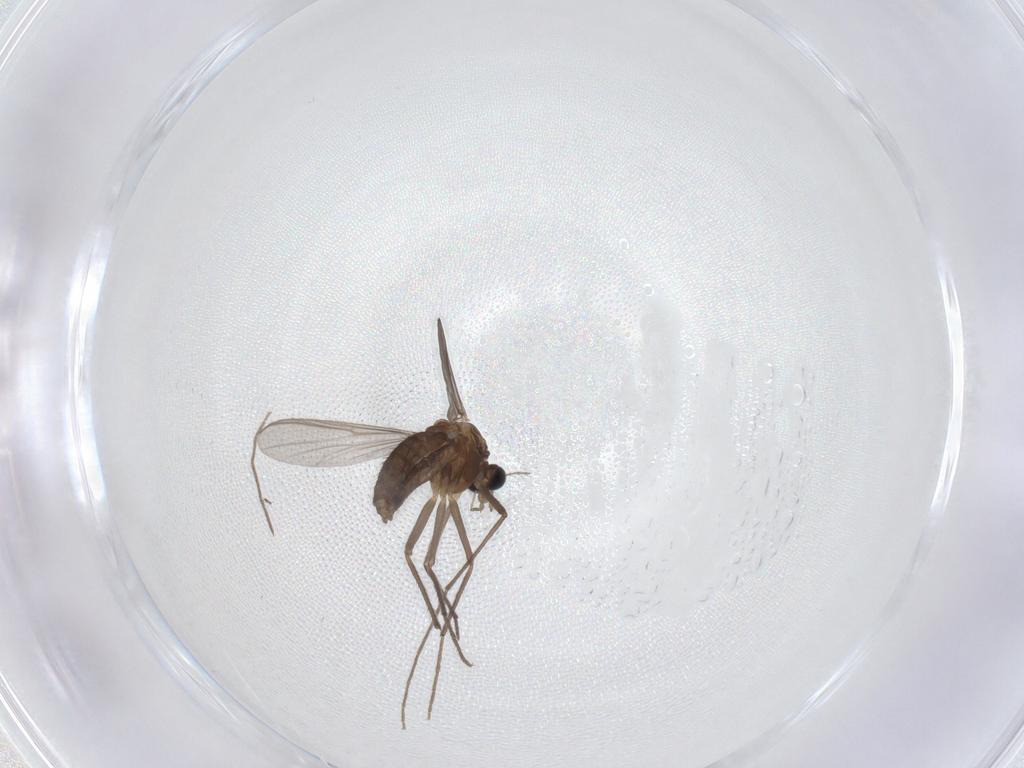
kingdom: Animalia
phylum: Arthropoda
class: Insecta
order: Diptera
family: Chironomidae
